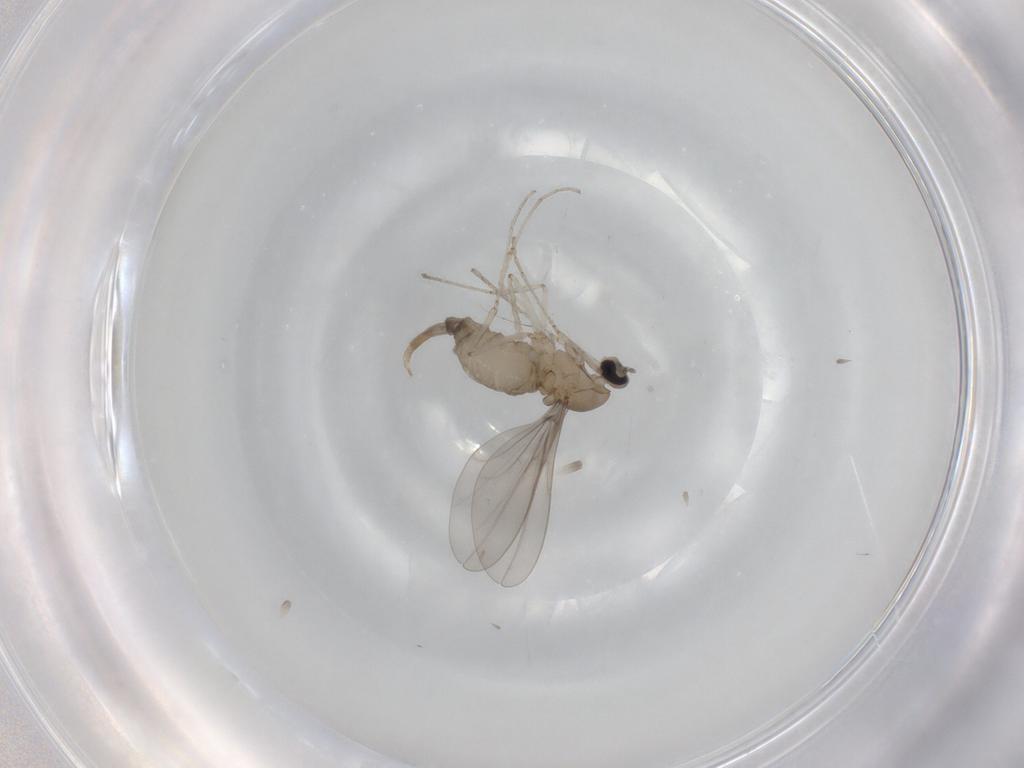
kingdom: Animalia
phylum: Arthropoda
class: Insecta
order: Diptera
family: Cecidomyiidae
